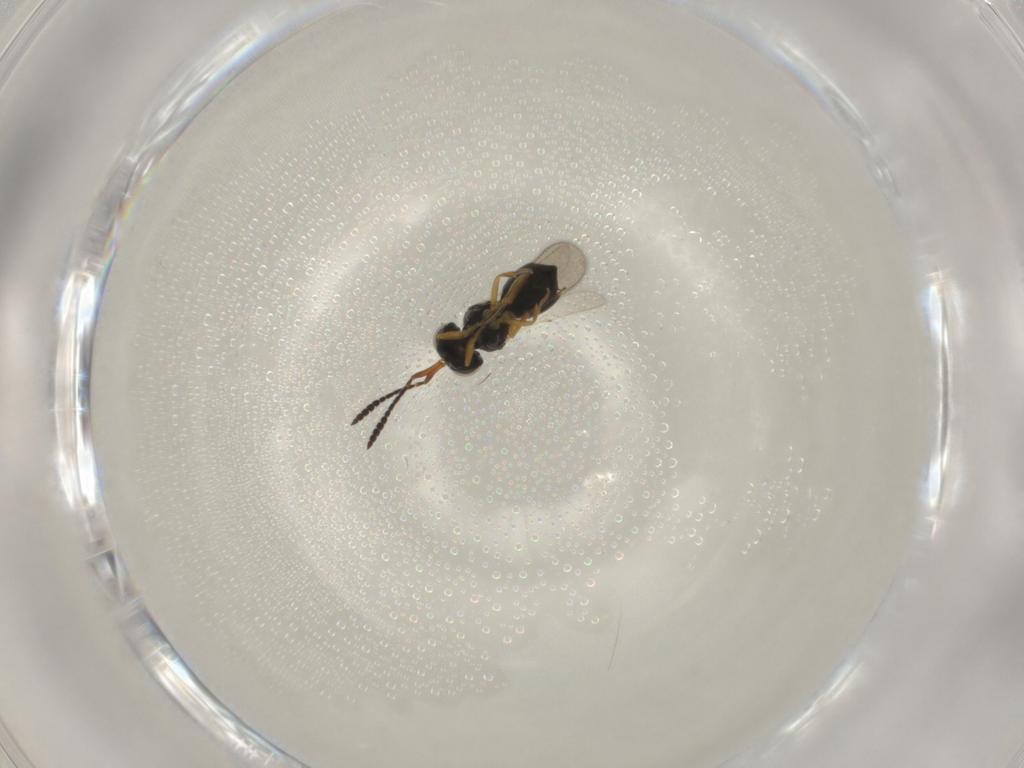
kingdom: Animalia
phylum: Arthropoda
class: Insecta
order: Hymenoptera
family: Scelionidae
